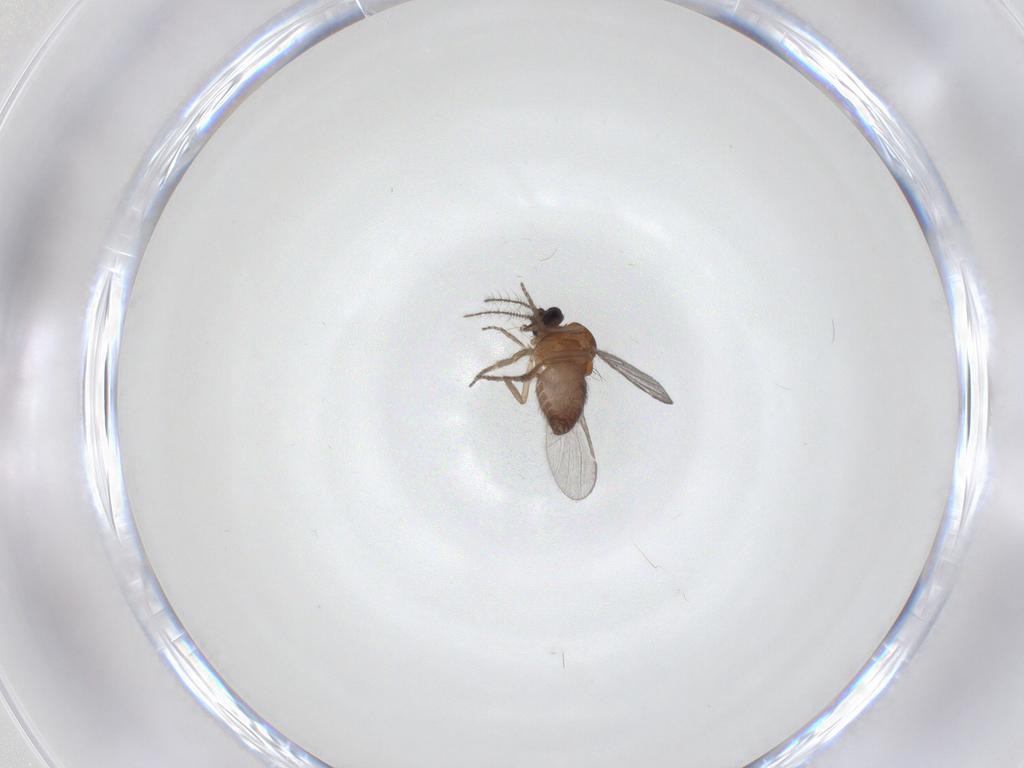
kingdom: Animalia
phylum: Arthropoda
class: Insecta
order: Diptera
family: Ceratopogonidae
